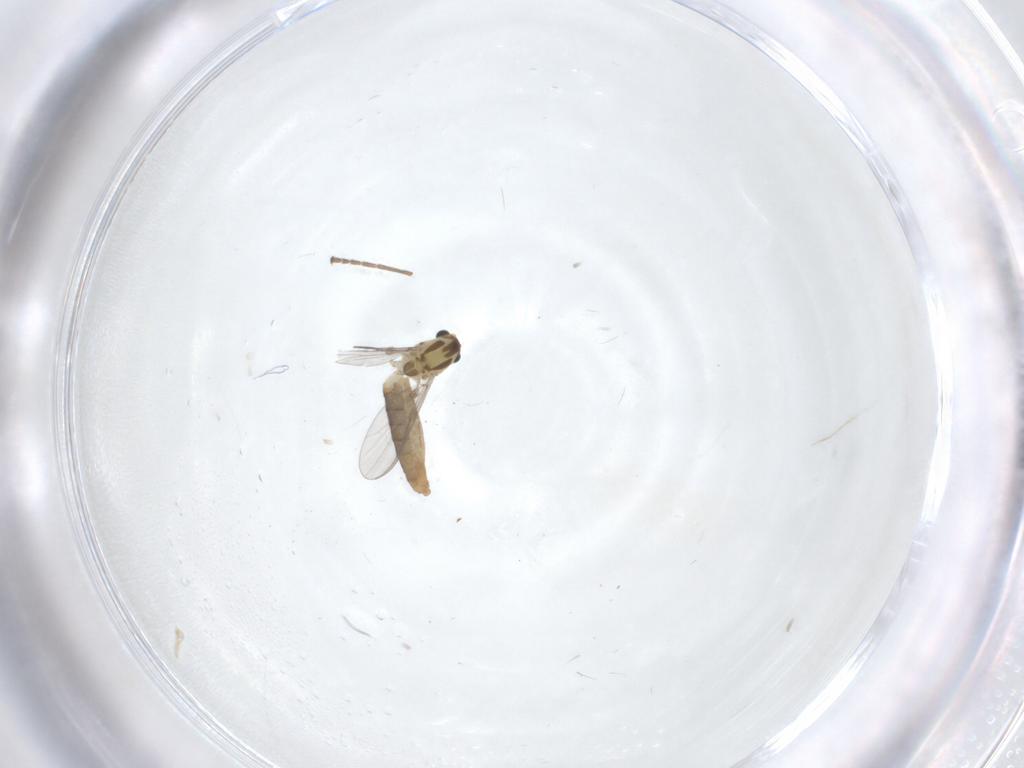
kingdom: Animalia
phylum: Arthropoda
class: Insecta
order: Diptera
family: Chironomidae
